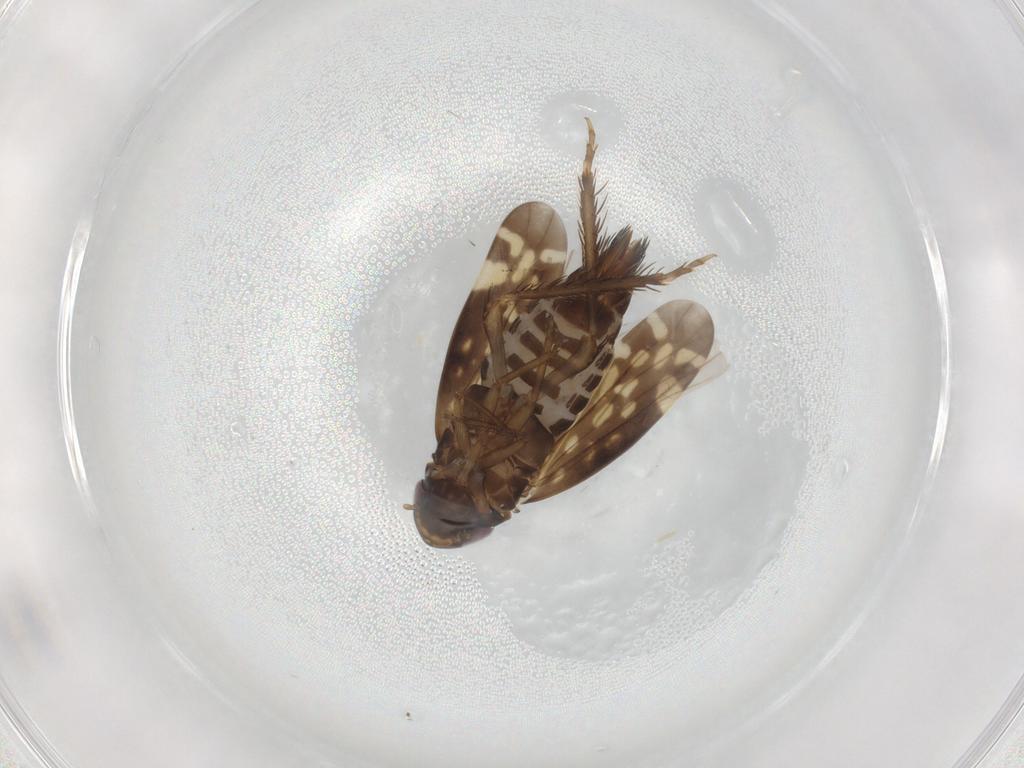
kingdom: Animalia
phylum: Arthropoda
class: Insecta
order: Hemiptera
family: Cicadellidae
